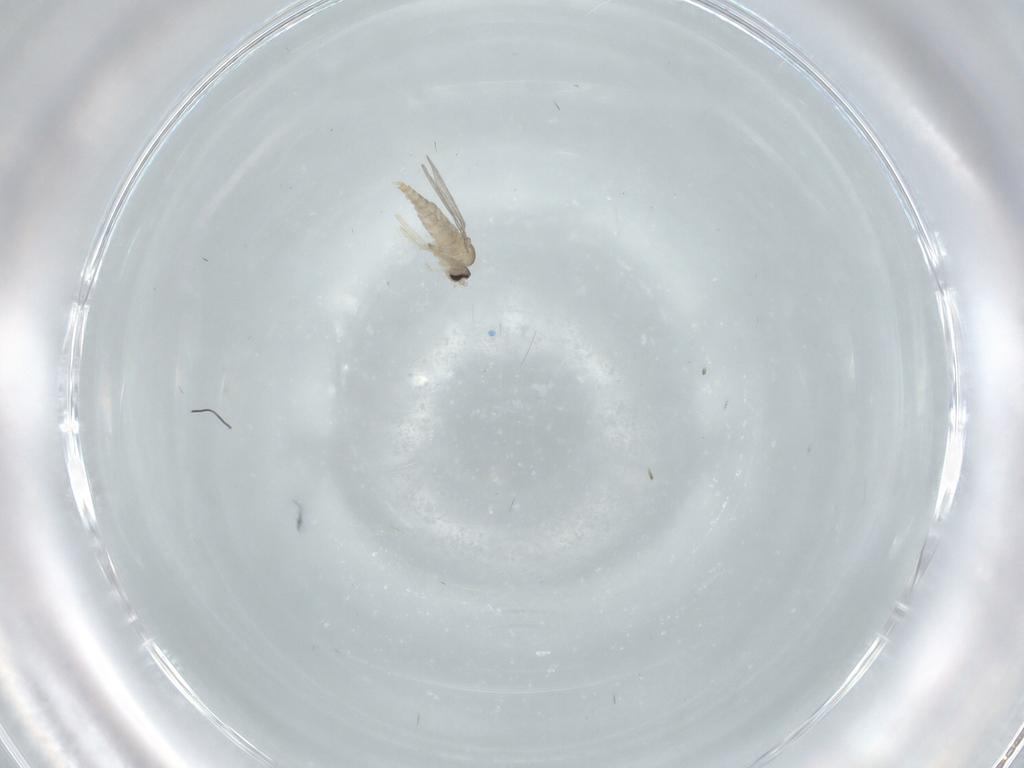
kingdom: Animalia
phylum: Arthropoda
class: Insecta
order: Diptera
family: Cecidomyiidae
